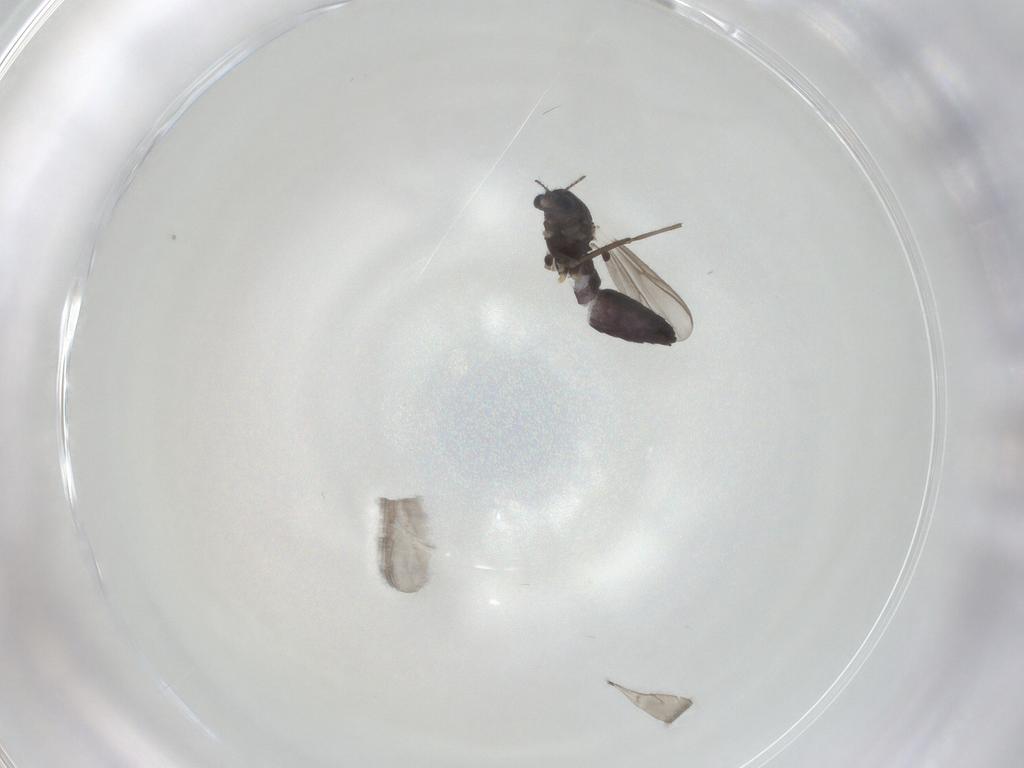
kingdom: Animalia
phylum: Arthropoda
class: Insecta
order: Diptera
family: Chironomidae
